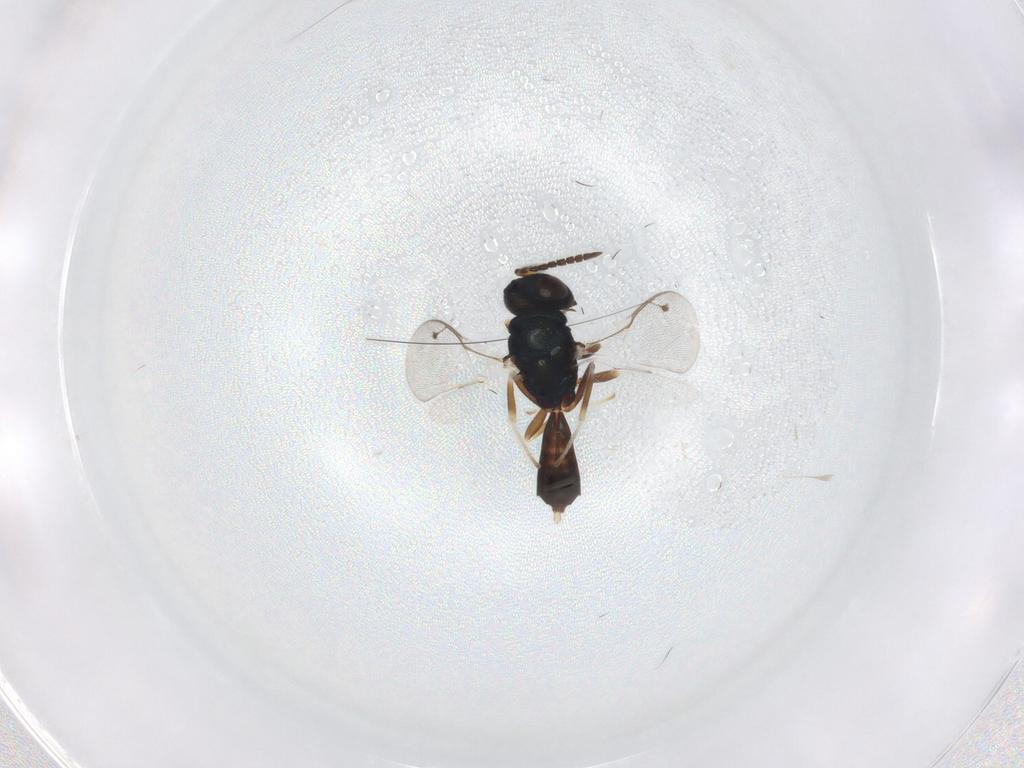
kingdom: Animalia
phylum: Arthropoda
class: Insecta
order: Hymenoptera
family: Pteromalidae
